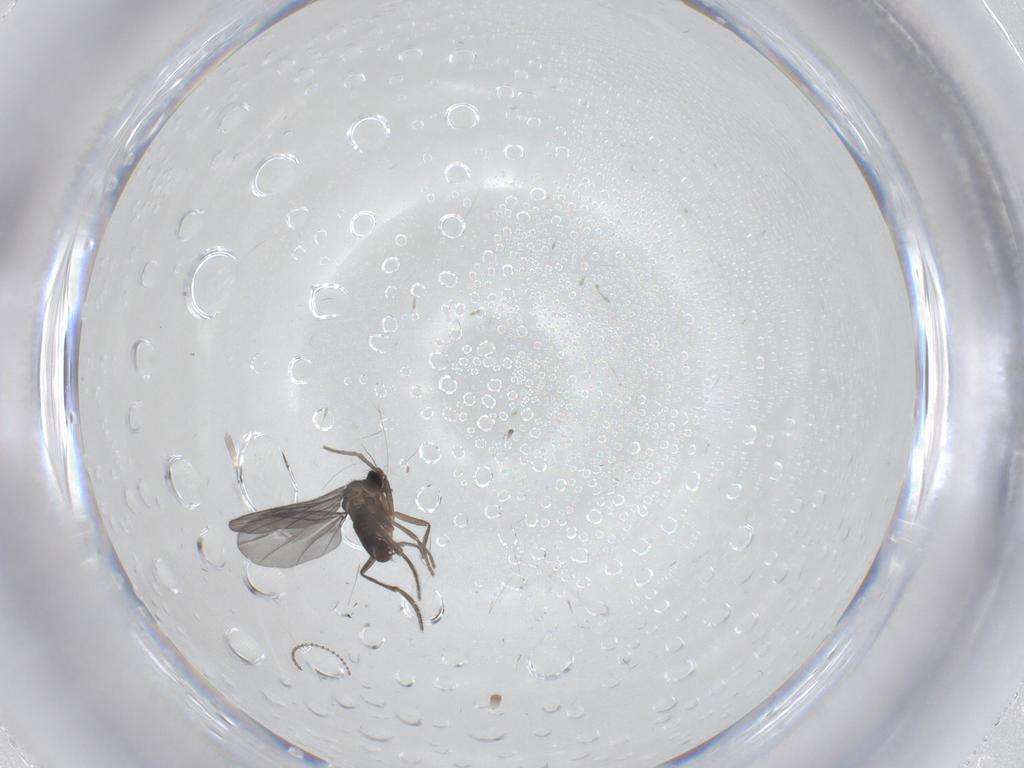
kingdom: Animalia
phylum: Arthropoda
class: Insecta
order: Diptera
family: Phoridae
